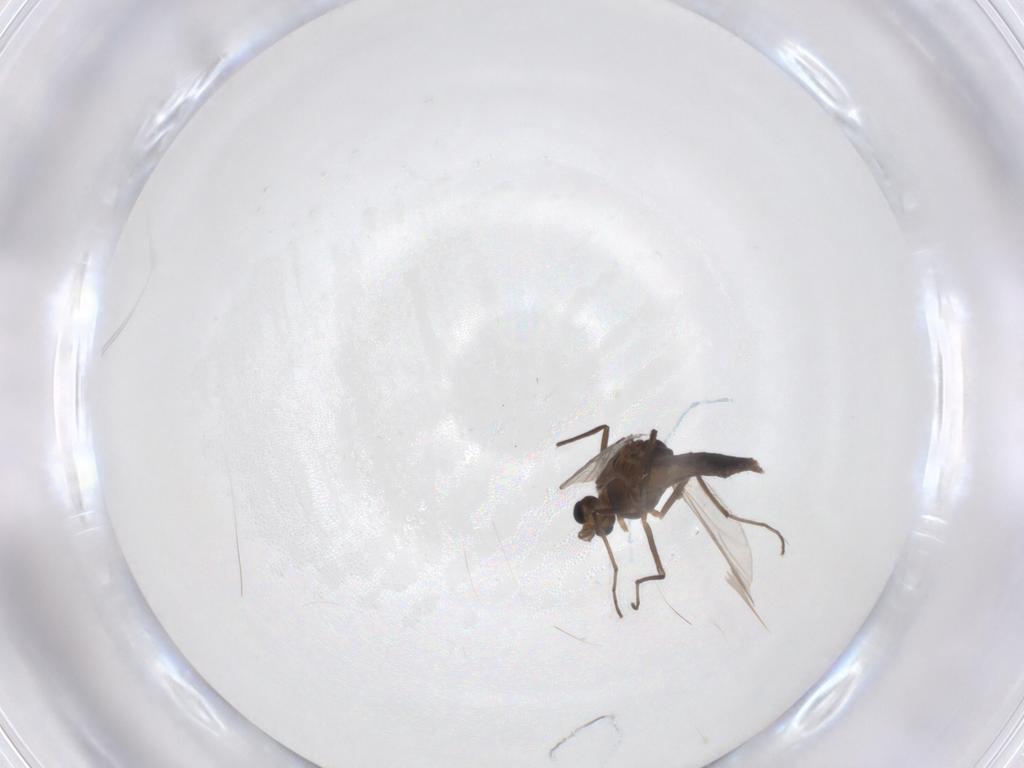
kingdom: Animalia
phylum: Arthropoda
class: Insecta
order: Diptera
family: Chironomidae
